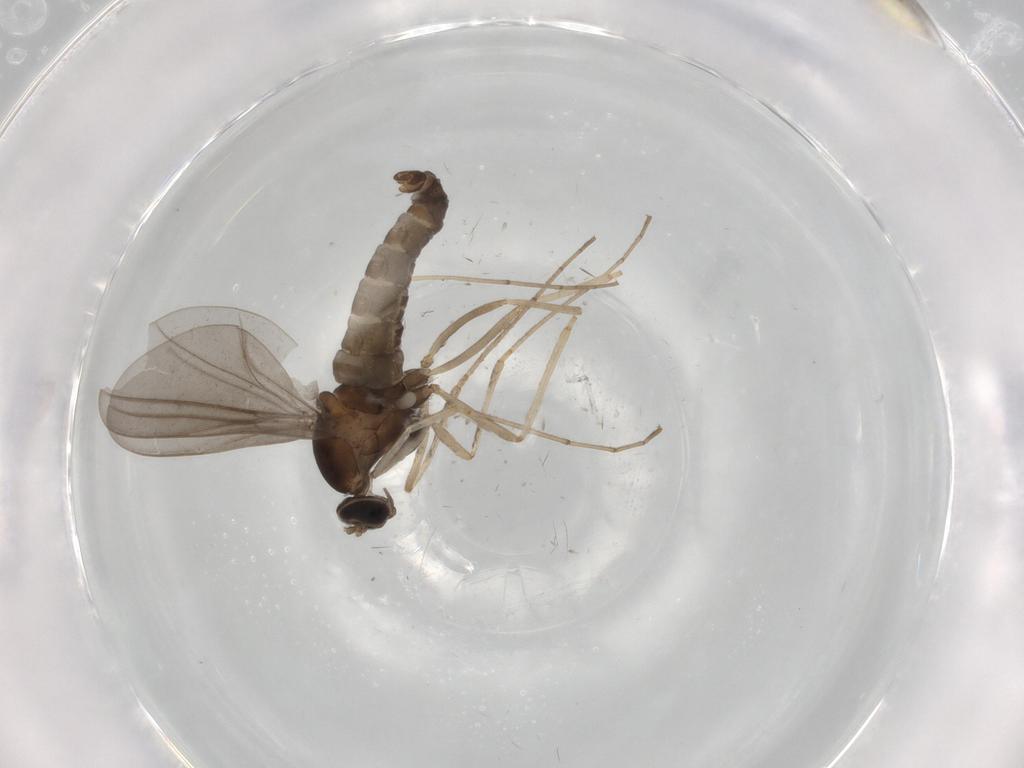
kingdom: Animalia
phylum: Arthropoda
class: Insecta
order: Diptera
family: Cecidomyiidae
